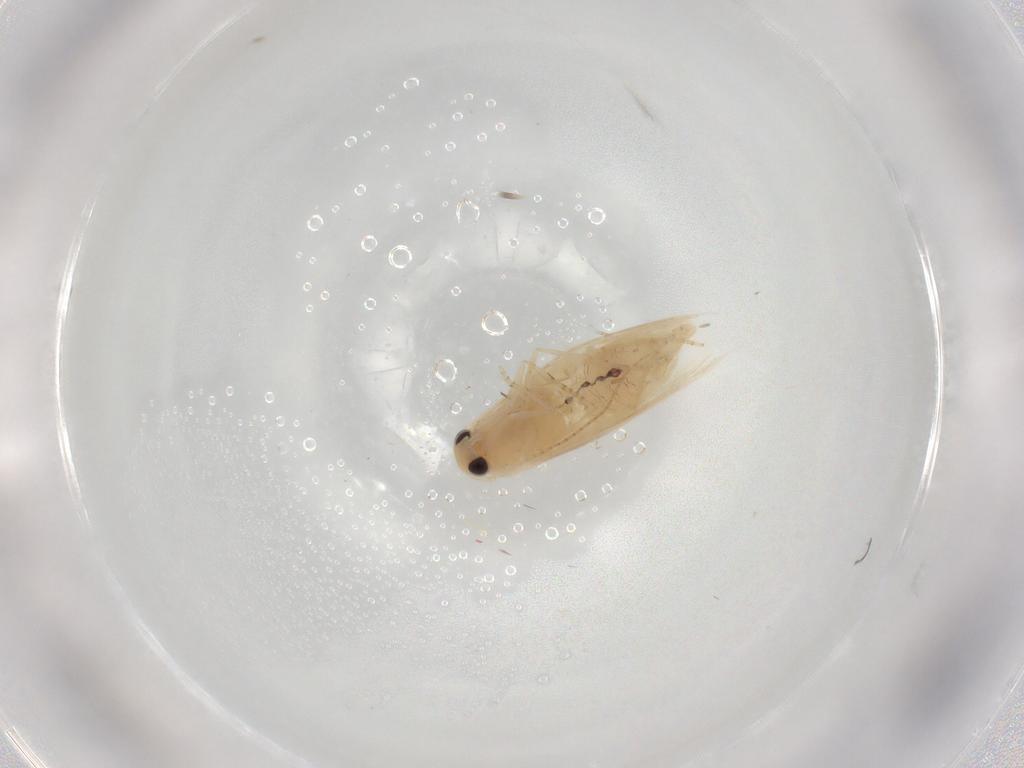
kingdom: Animalia
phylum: Arthropoda
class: Insecta
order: Lepidoptera
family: Bucculatricidae
